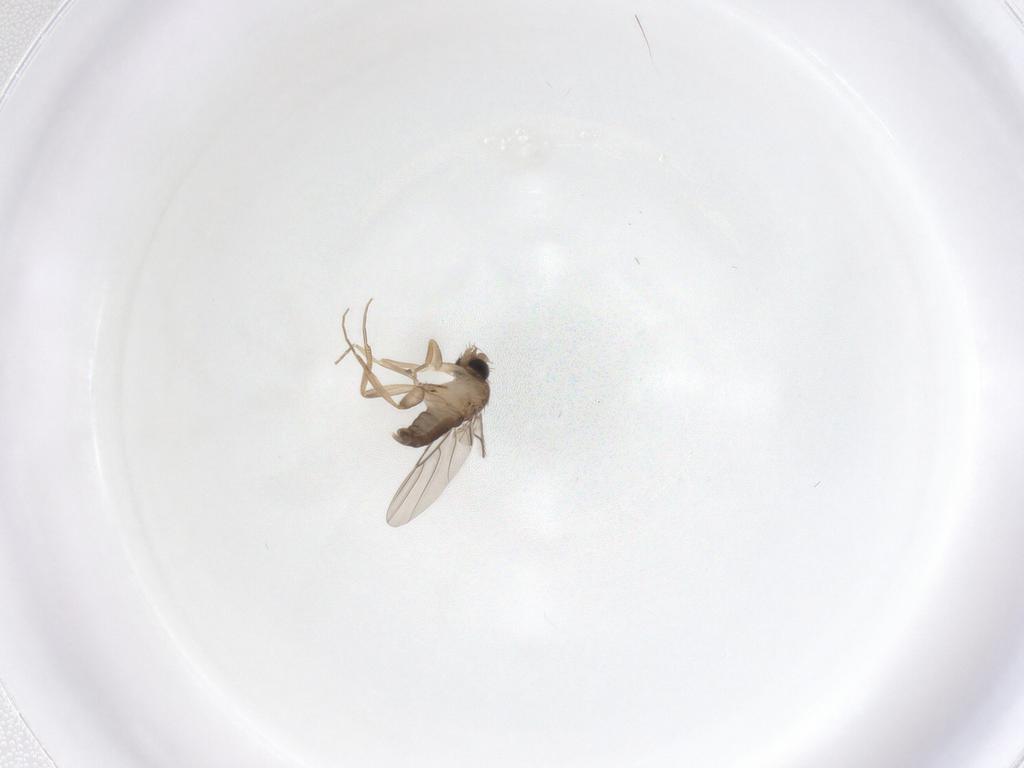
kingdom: Animalia
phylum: Arthropoda
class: Insecta
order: Diptera
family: Phoridae
